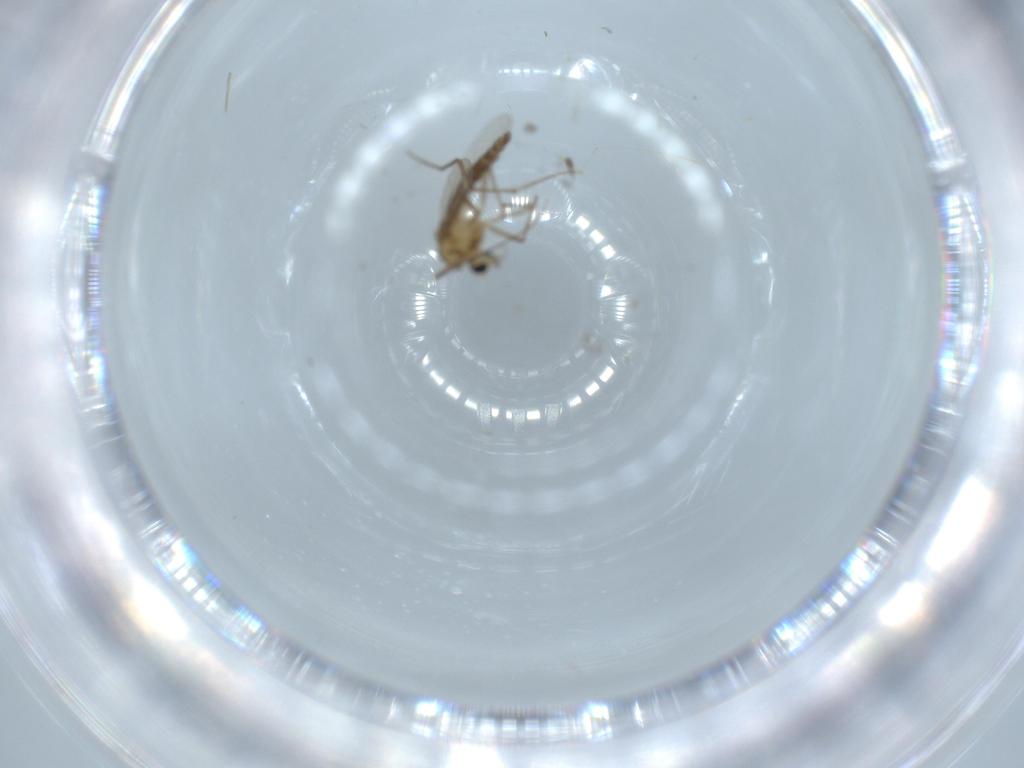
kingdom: Animalia
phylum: Arthropoda
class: Insecta
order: Diptera
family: Chironomidae
